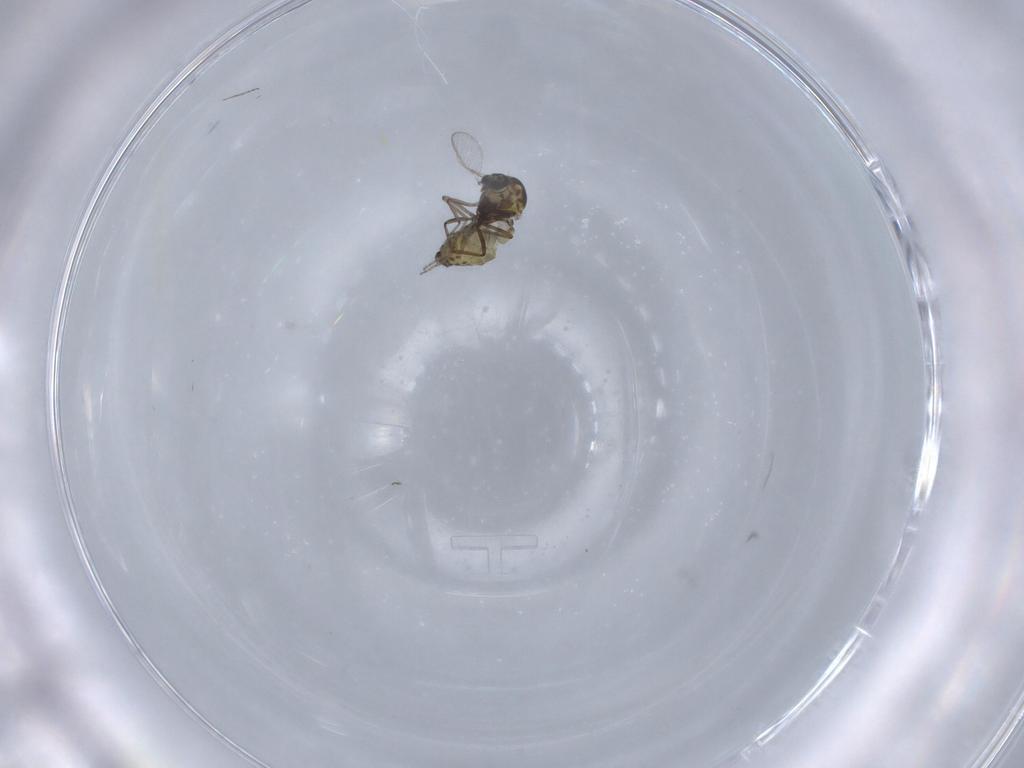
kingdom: Animalia
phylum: Arthropoda
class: Insecta
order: Diptera
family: Ceratopogonidae
